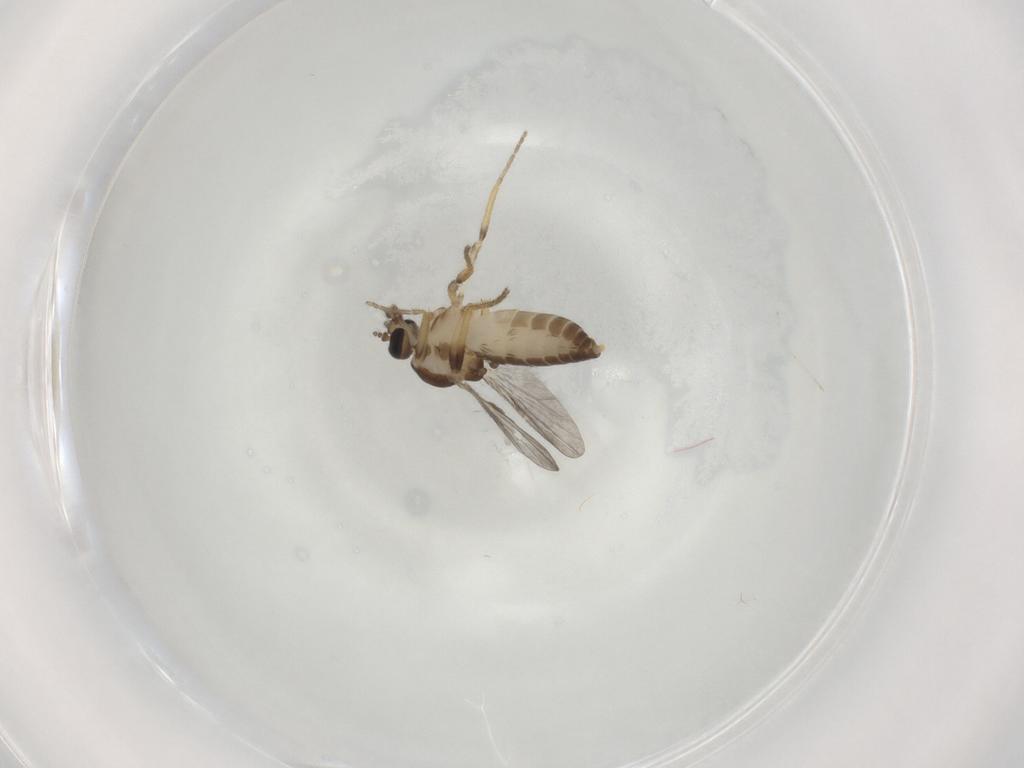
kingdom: Animalia
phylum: Arthropoda
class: Insecta
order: Diptera
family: Ceratopogonidae
